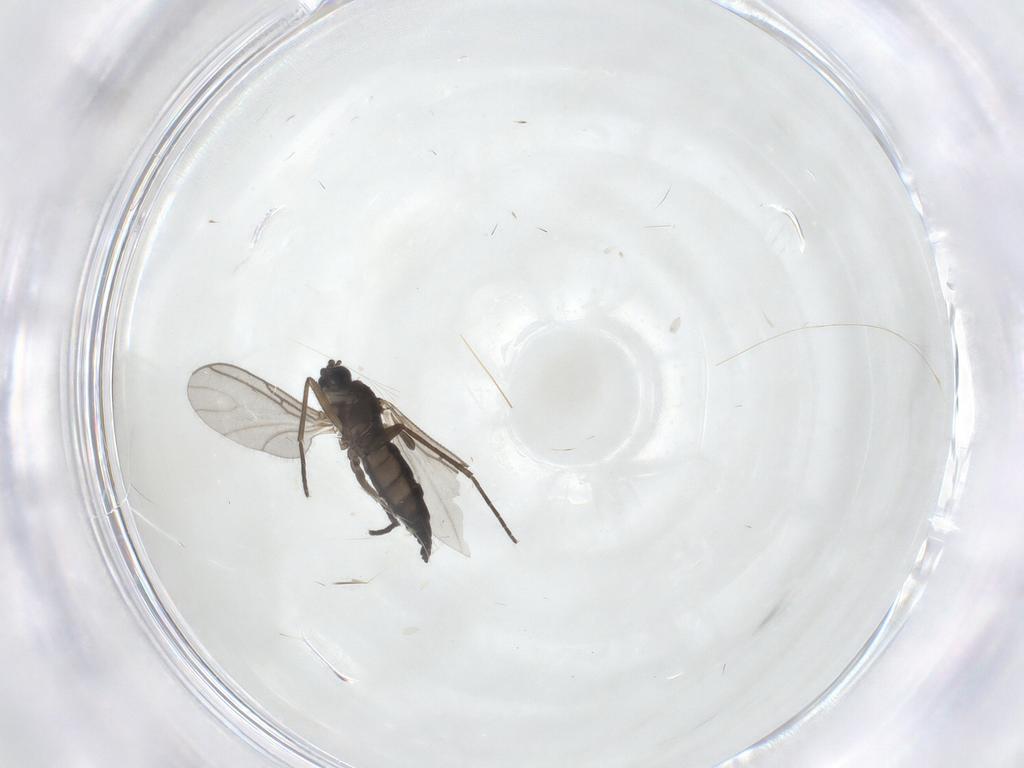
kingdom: Animalia
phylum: Arthropoda
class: Insecta
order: Diptera
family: Sciaridae
